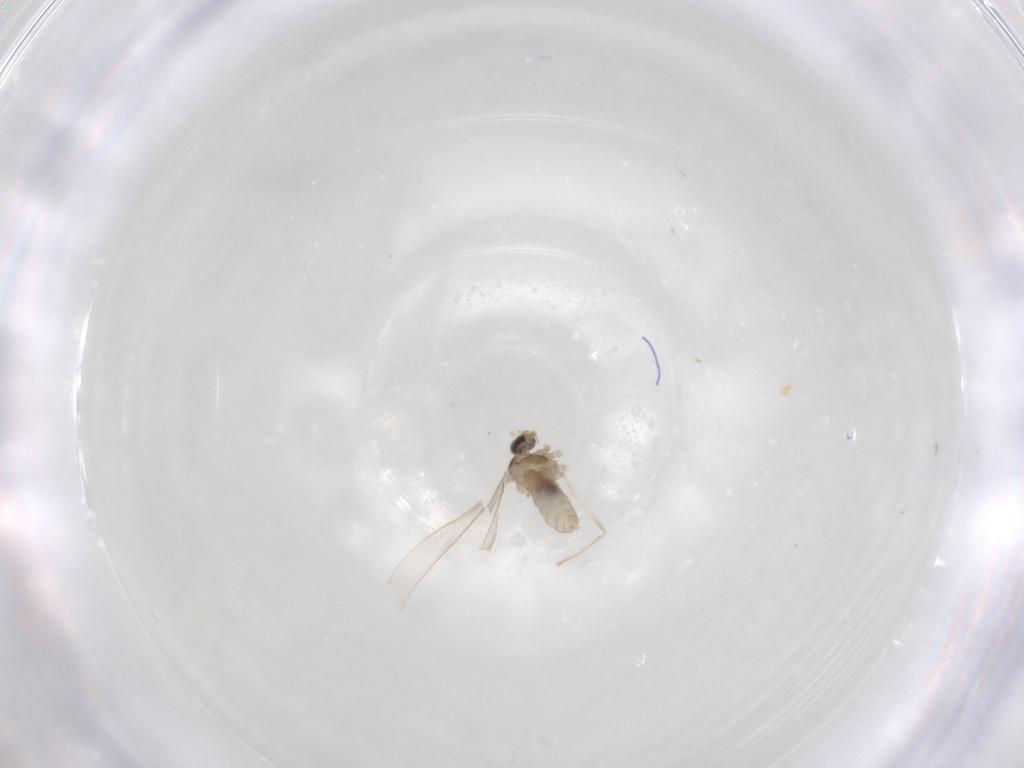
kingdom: Animalia
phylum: Arthropoda
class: Insecta
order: Diptera
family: Cecidomyiidae
